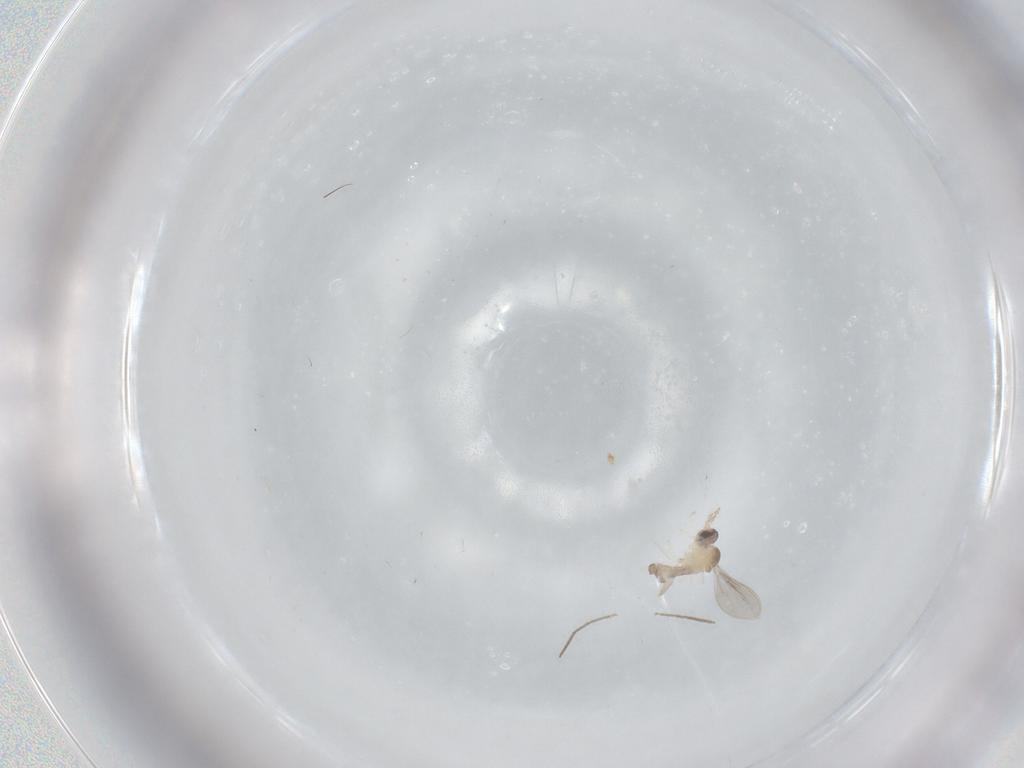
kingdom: Animalia
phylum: Arthropoda
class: Insecta
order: Diptera
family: Cecidomyiidae
